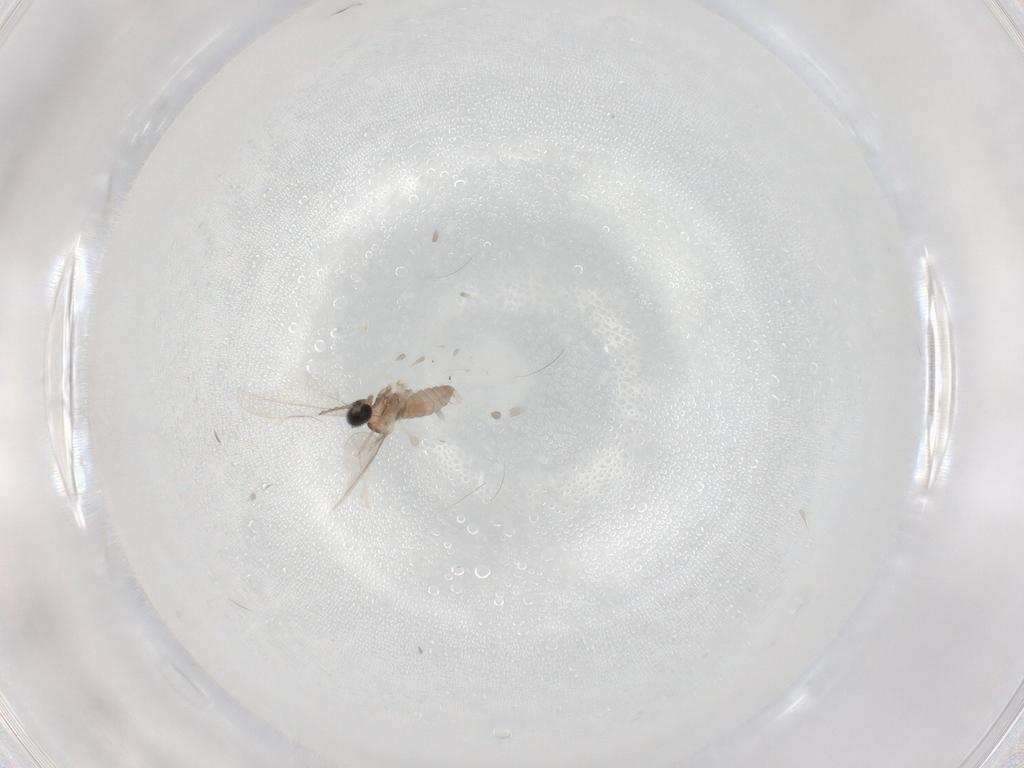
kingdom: Animalia
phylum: Arthropoda
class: Insecta
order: Diptera
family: Cecidomyiidae
